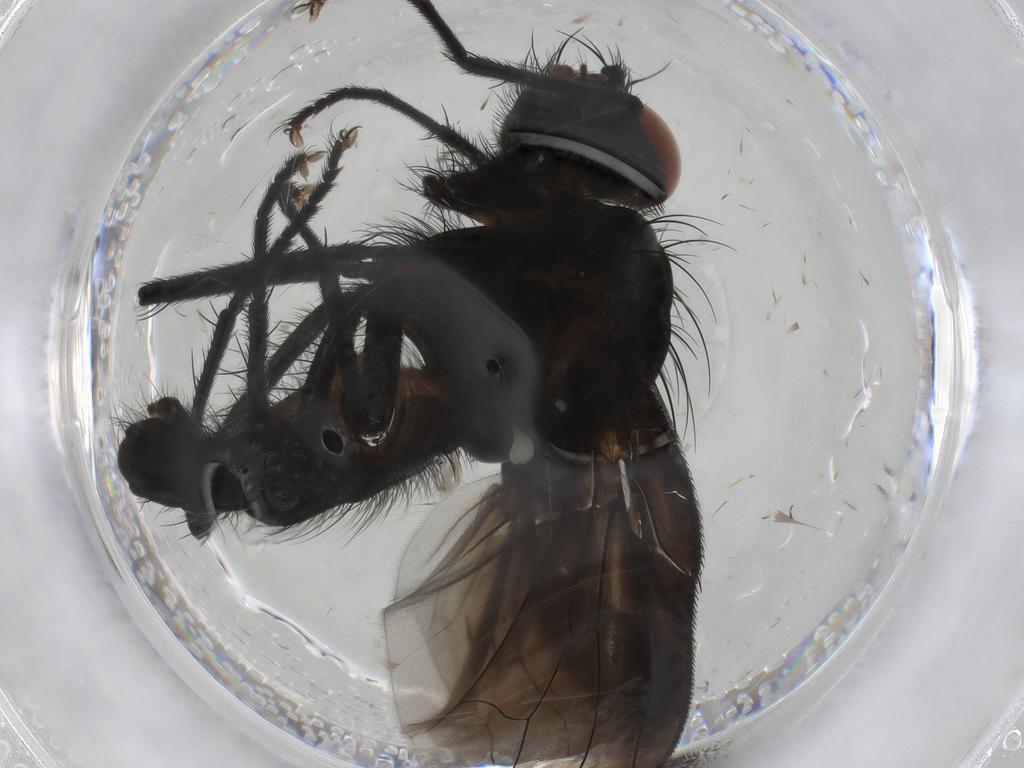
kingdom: Animalia
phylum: Arthropoda
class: Insecta
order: Diptera
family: Anthomyiidae
